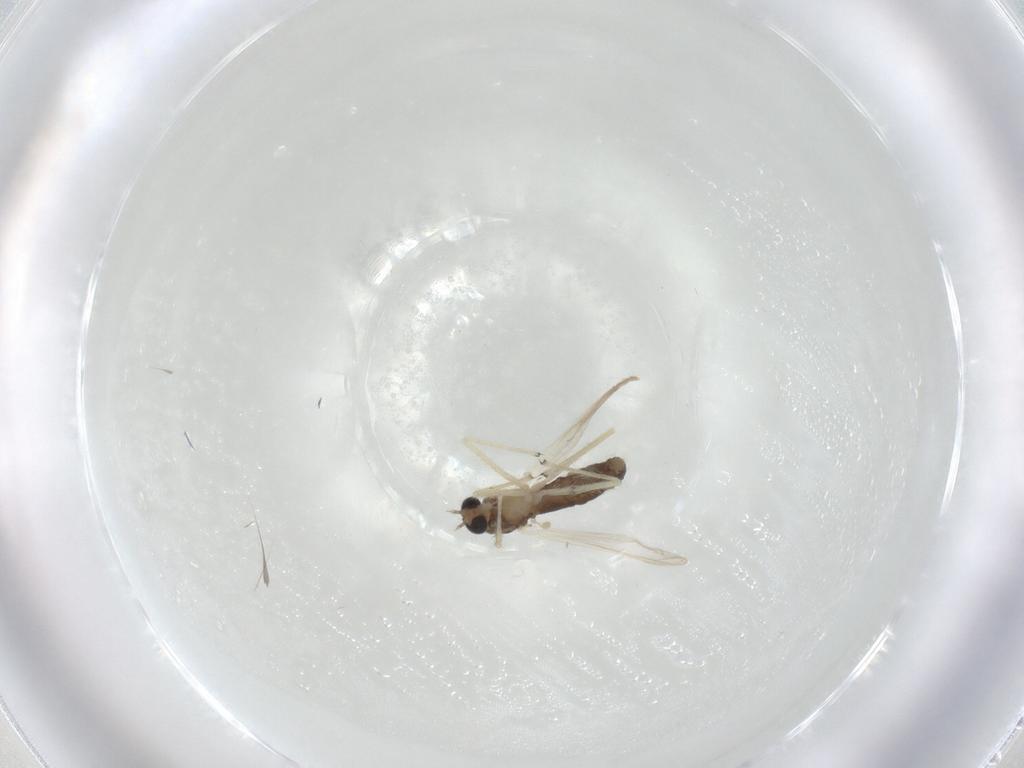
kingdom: Animalia
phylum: Arthropoda
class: Insecta
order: Diptera
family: Chironomidae
